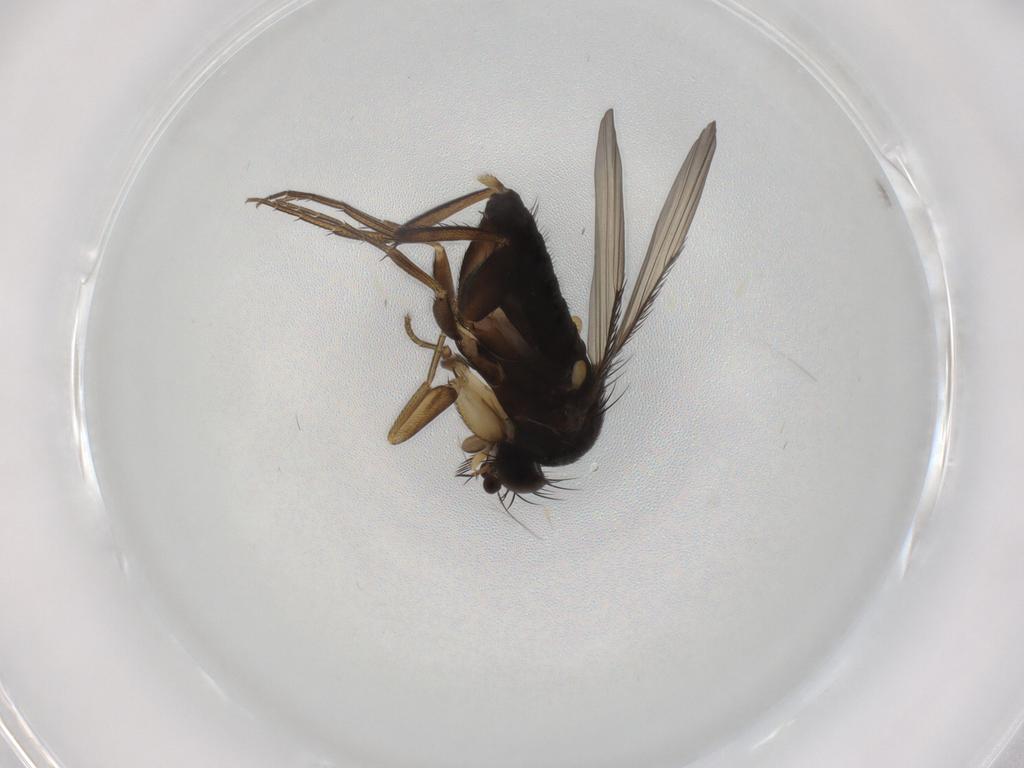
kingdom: Animalia
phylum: Arthropoda
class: Insecta
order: Diptera
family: Phoridae
